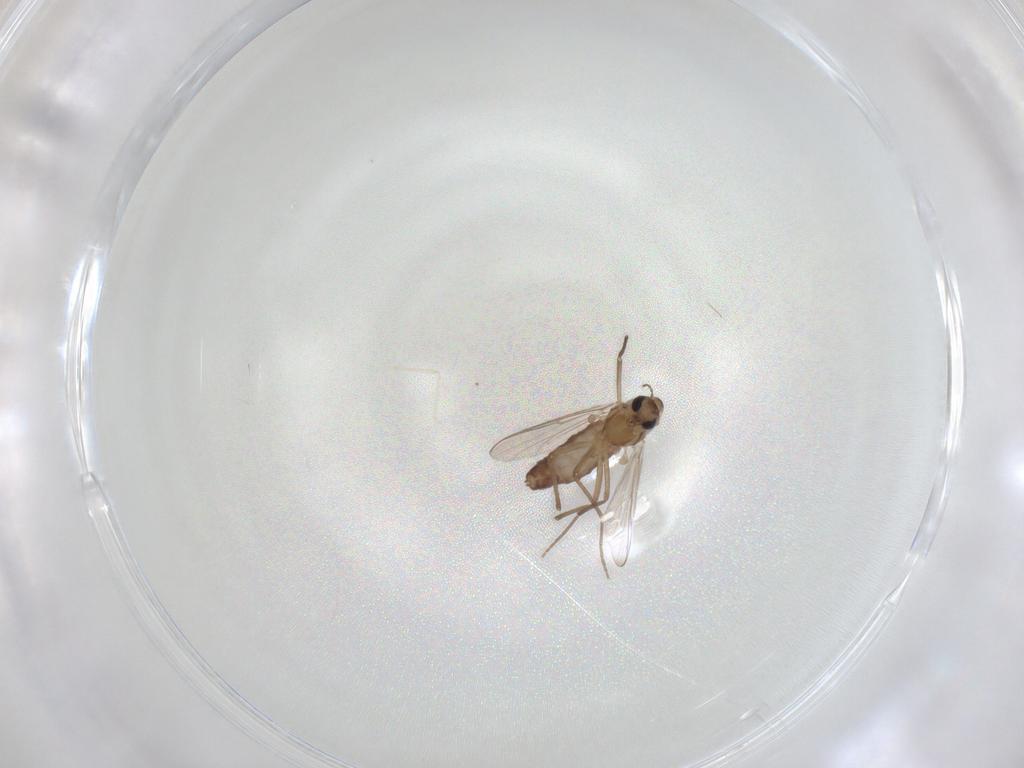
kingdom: Animalia
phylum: Arthropoda
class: Insecta
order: Diptera
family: Cecidomyiidae
